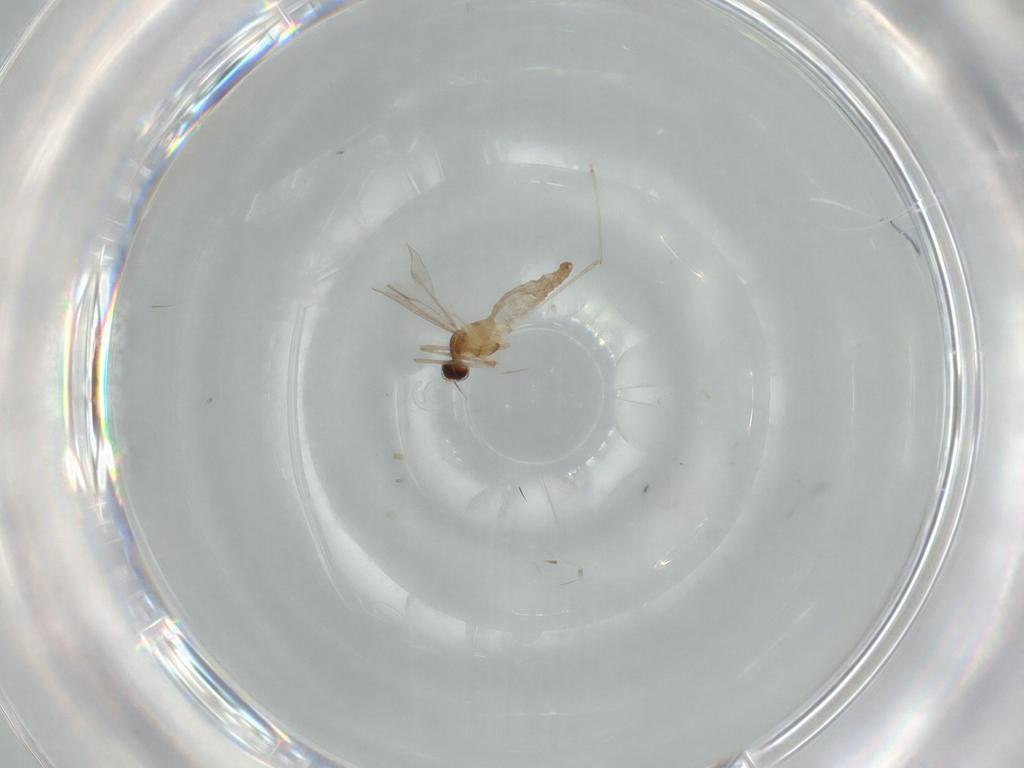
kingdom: Animalia
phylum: Arthropoda
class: Insecta
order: Diptera
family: Cecidomyiidae
